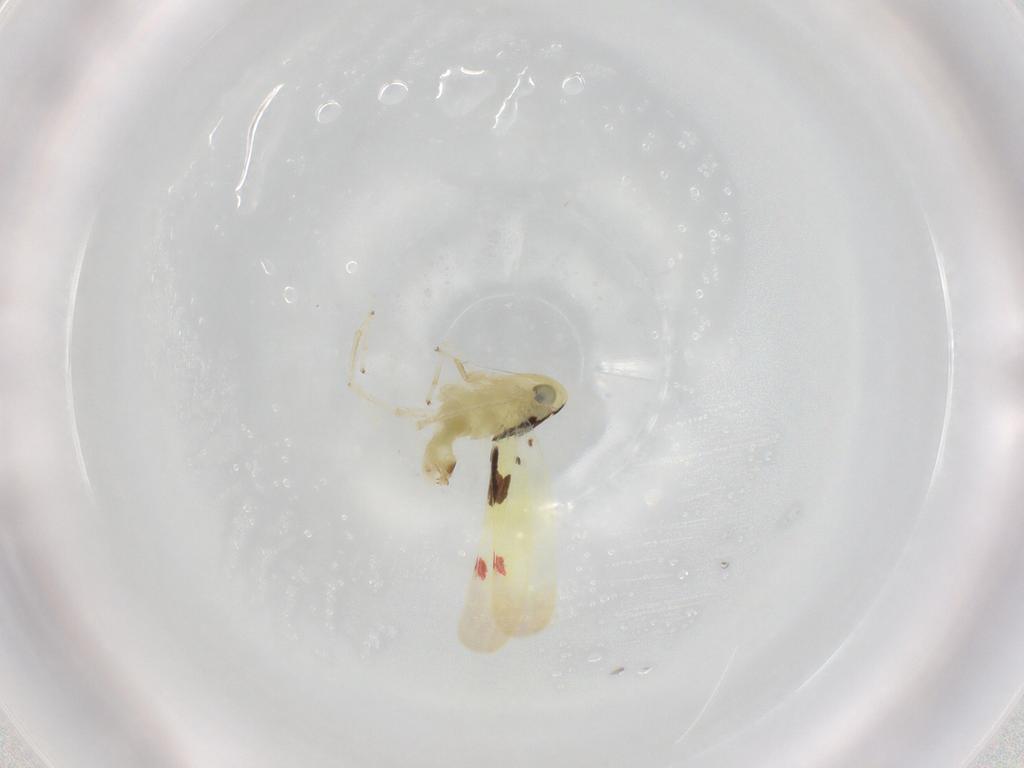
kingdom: Animalia
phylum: Arthropoda
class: Insecta
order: Hemiptera
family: Cicadellidae
